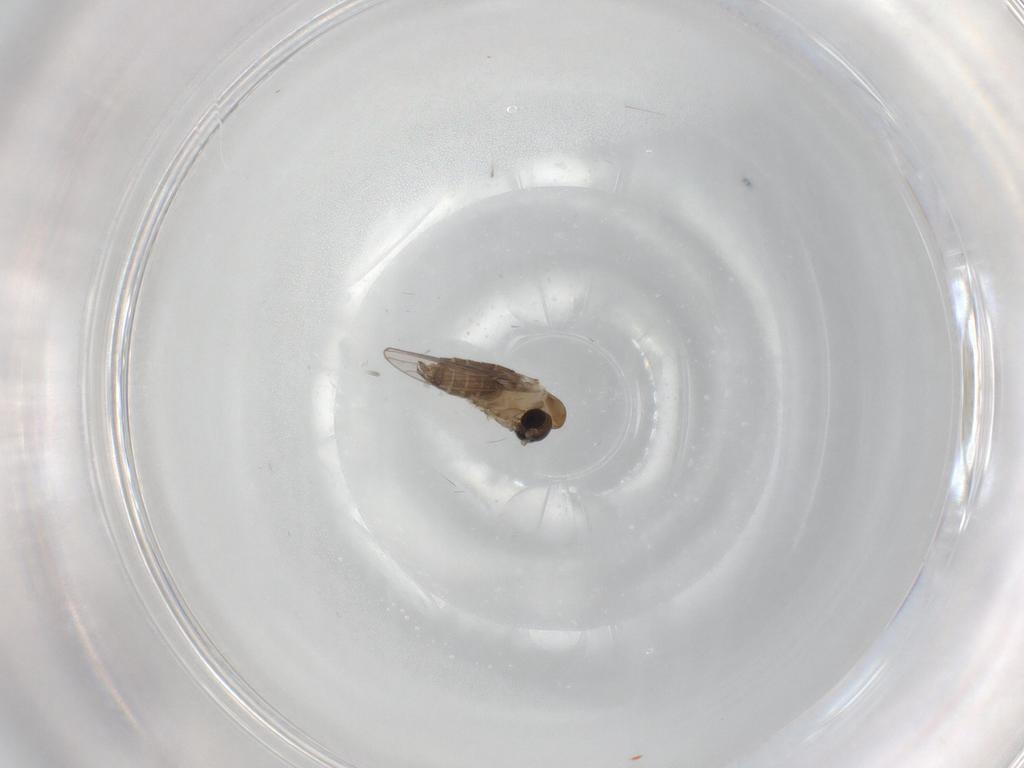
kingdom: Animalia
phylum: Arthropoda
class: Insecta
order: Diptera
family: Psychodidae
